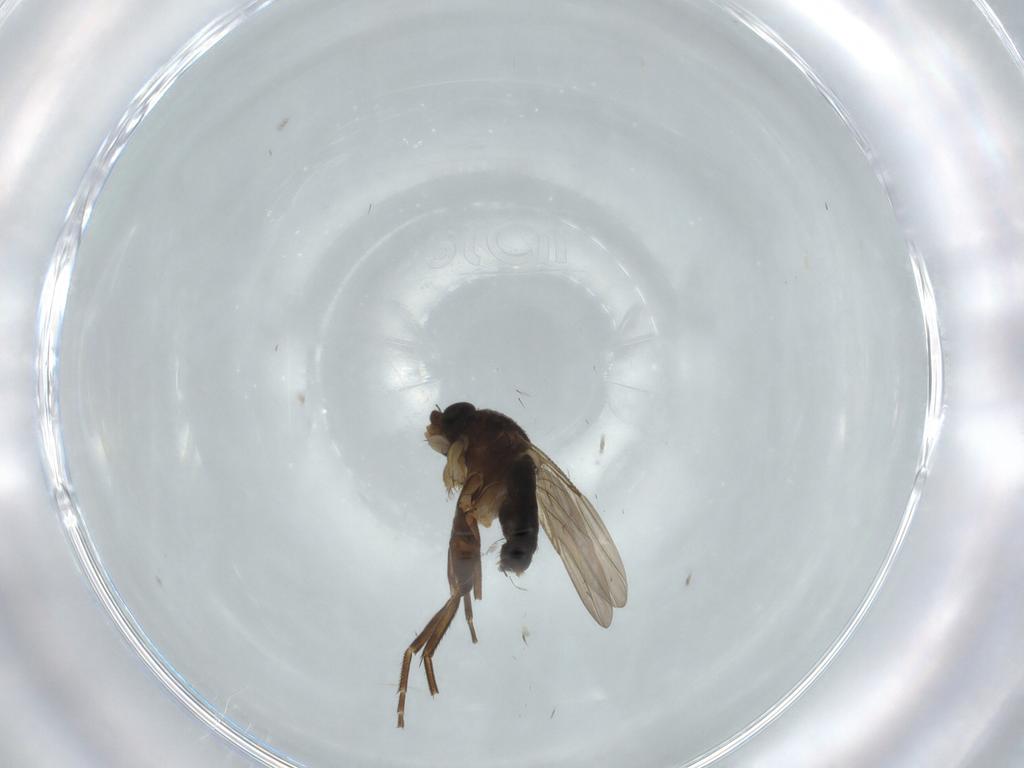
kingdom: Animalia
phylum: Arthropoda
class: Insecta
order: Diptera
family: Phoridae
